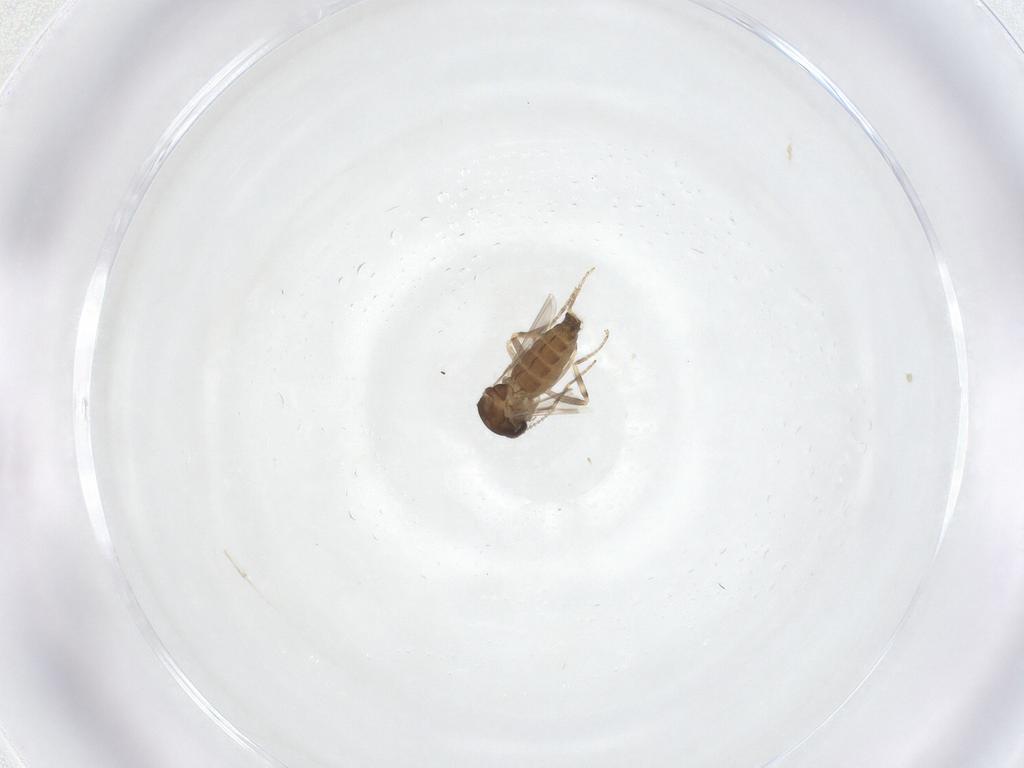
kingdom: Animalia
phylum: Arthropoda
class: Insecta
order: Diptera
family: Ceratopogonidae
